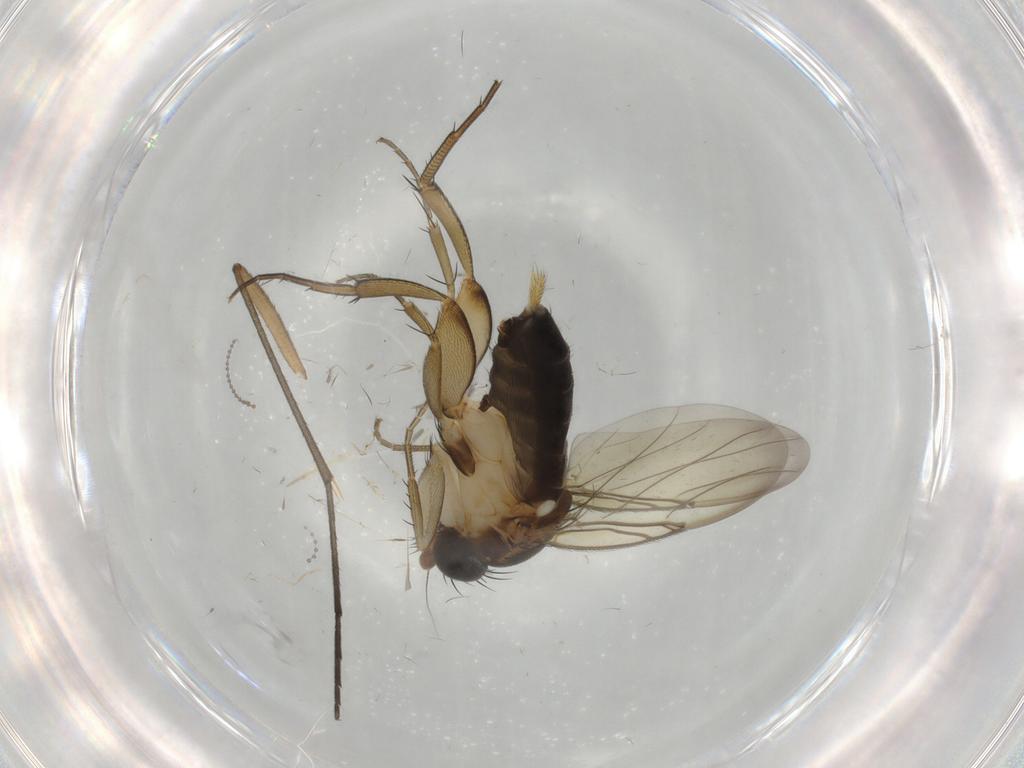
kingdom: Animalia
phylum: Arthropoda
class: Insecta
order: Diptera
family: Phoridae
